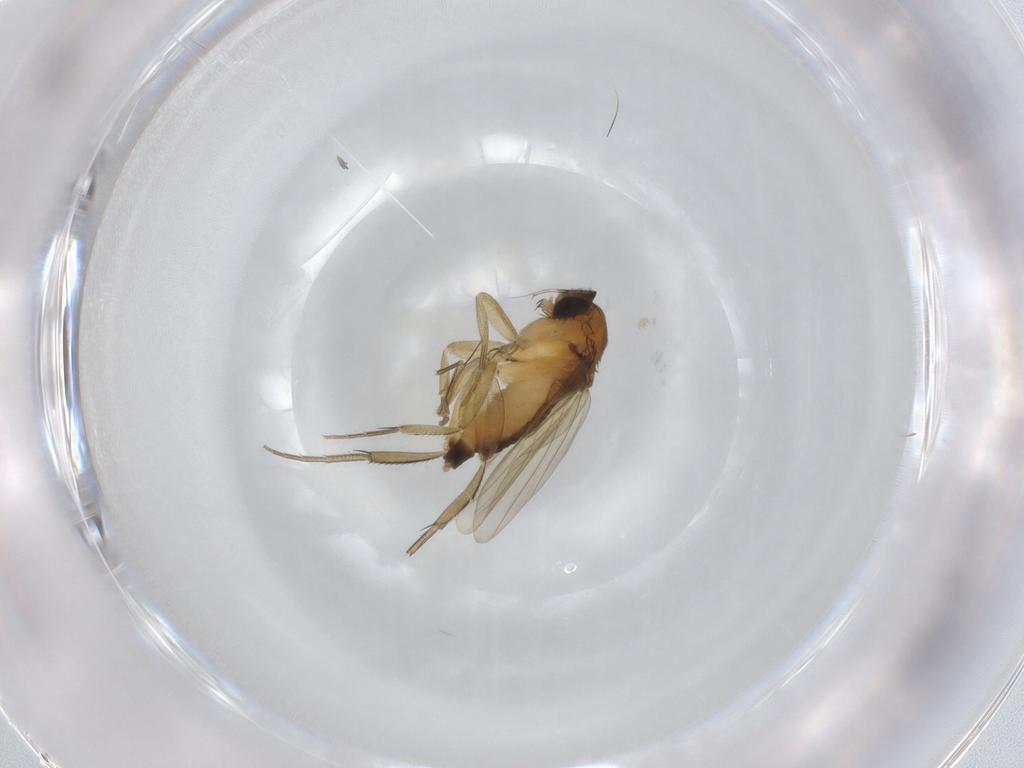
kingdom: Animalia
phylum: Arthropoda
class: Insecta
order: Diptera
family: Phoridae
